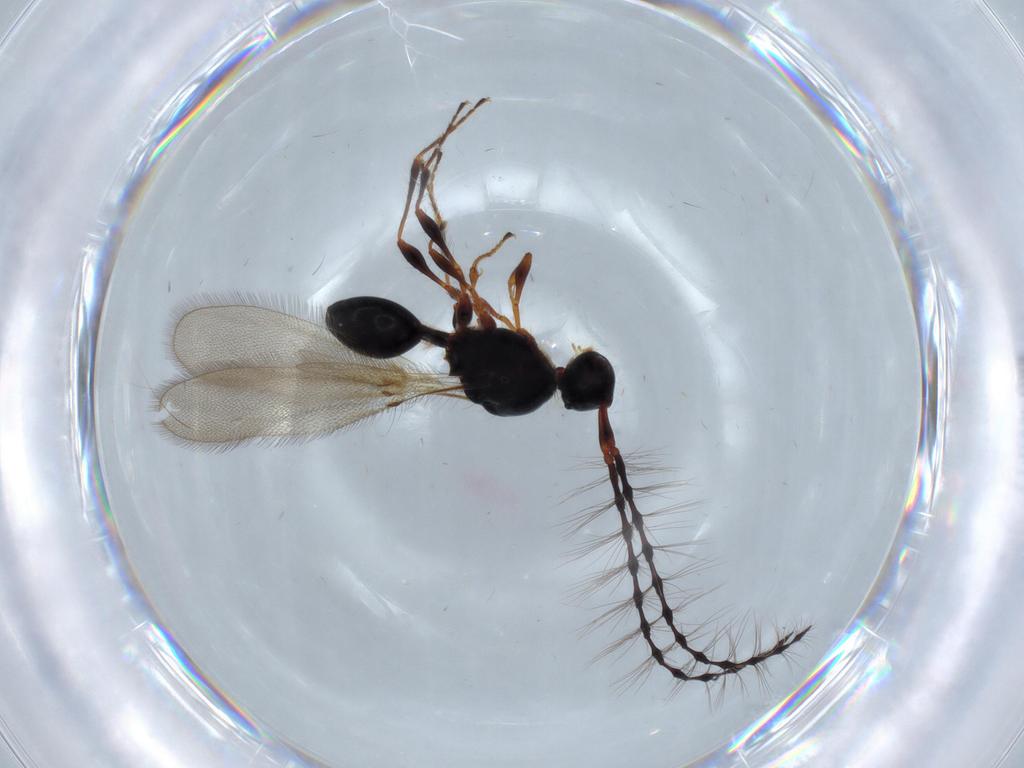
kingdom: Animalia
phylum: Arthropoda
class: Insecta
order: Hymenoptera
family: Diapriidae
